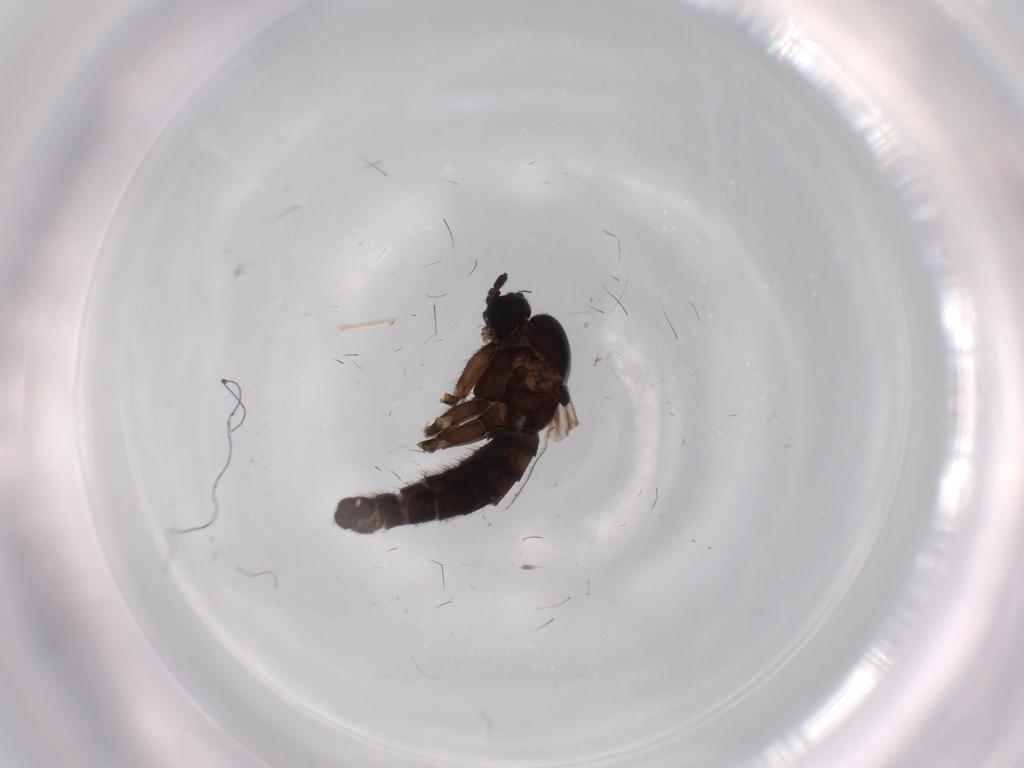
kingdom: Animalia
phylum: Arthropoda
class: Insecta
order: Diptera
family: Sciaridae
